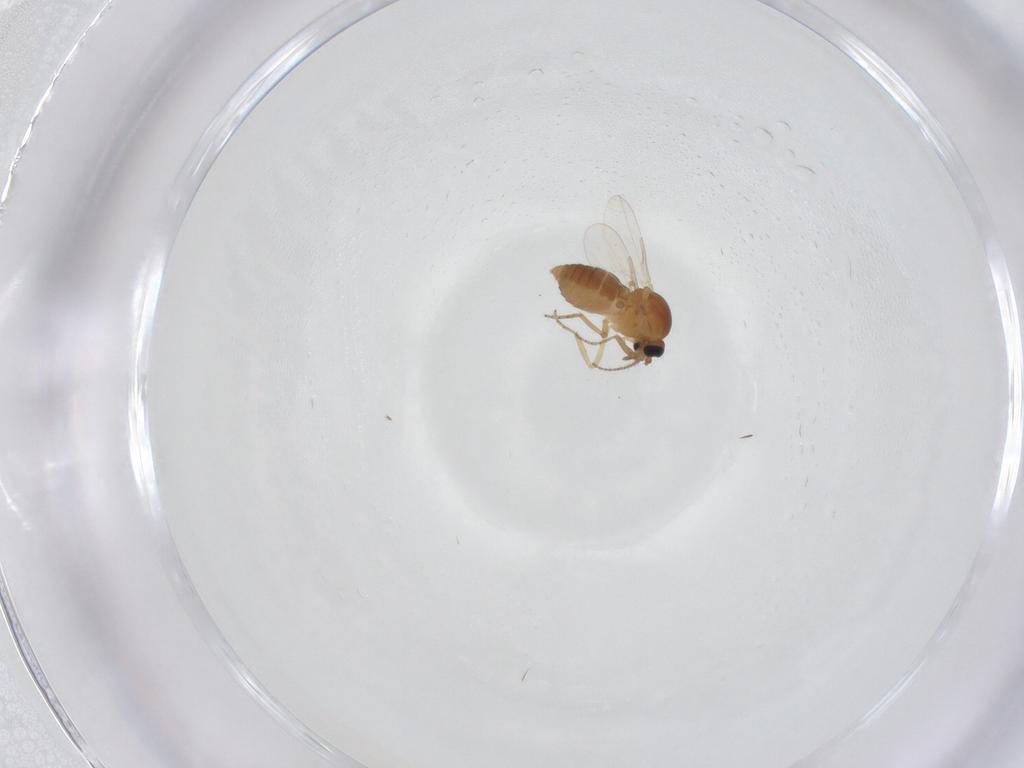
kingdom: Animalia
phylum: Arthropoda
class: Insecta
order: Diptera
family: Ceratopogonidae
